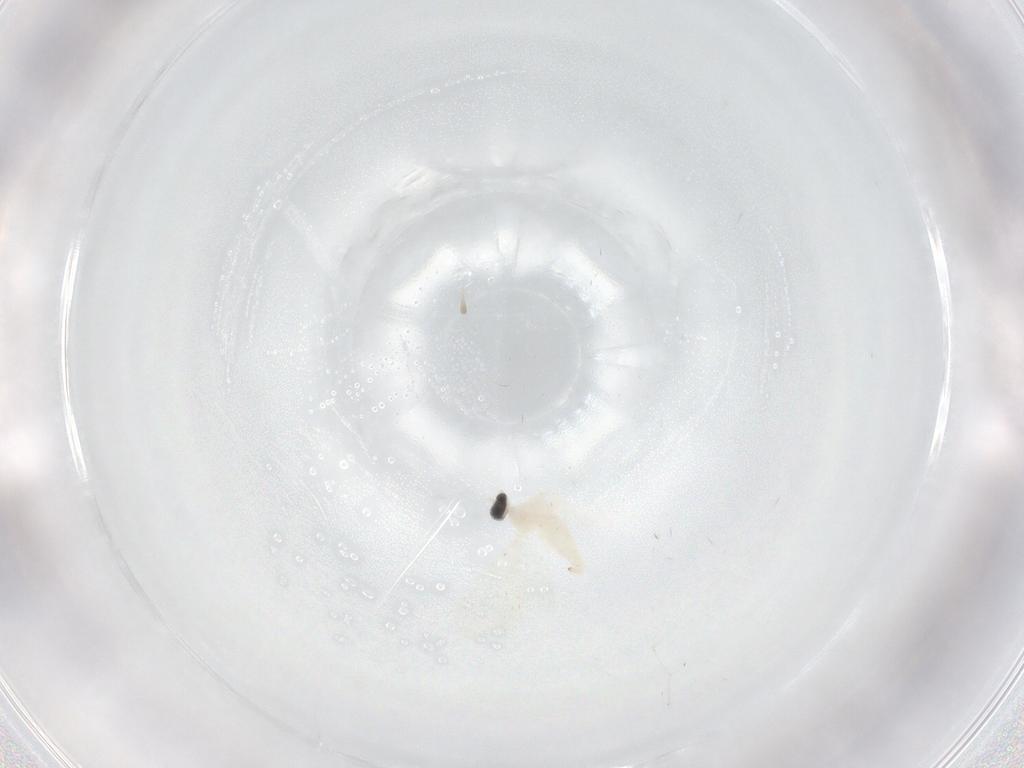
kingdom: Animalia
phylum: Arthropoda
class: Insecta
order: Diptera
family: Cecidomyiidae
